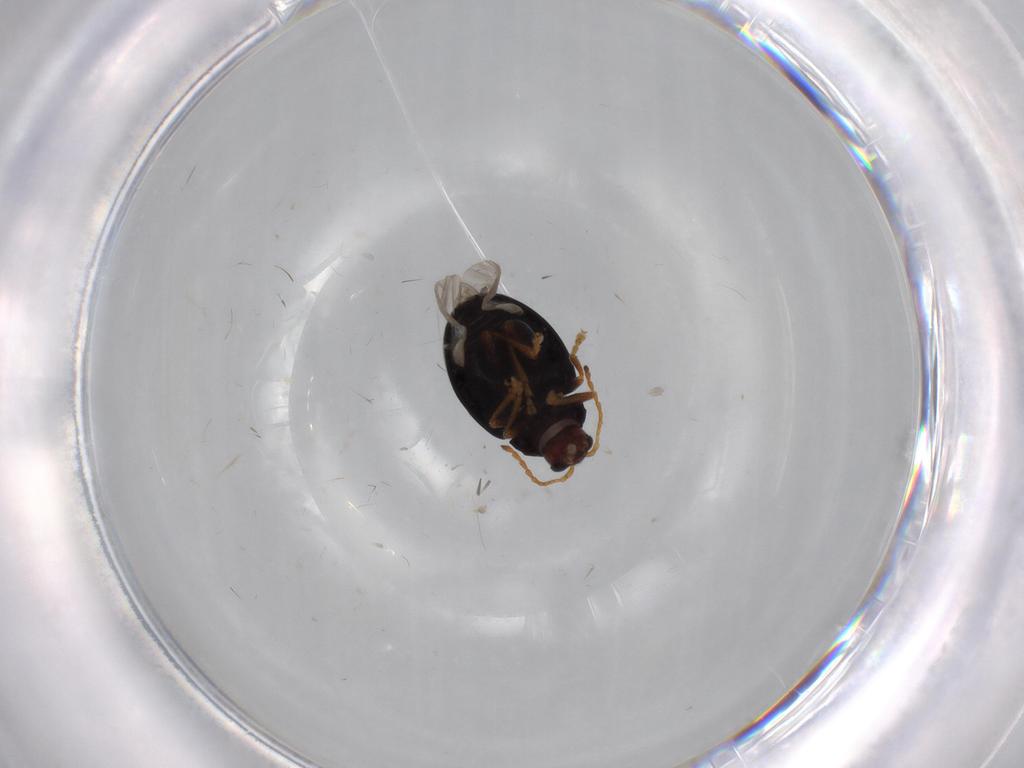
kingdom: Animalia
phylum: Arthropoda
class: Insecta
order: Coleoptera
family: Chrysomelidae
